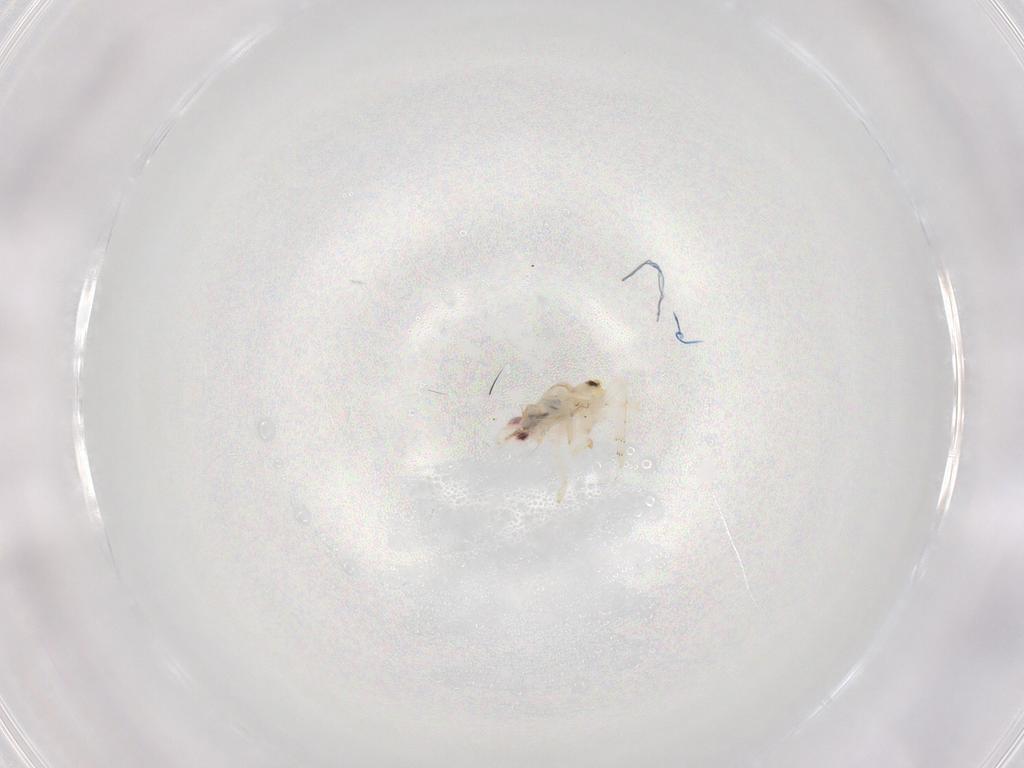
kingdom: Animalia
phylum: Arthropoda
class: Insecta
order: Hemiptera
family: Flatidae
